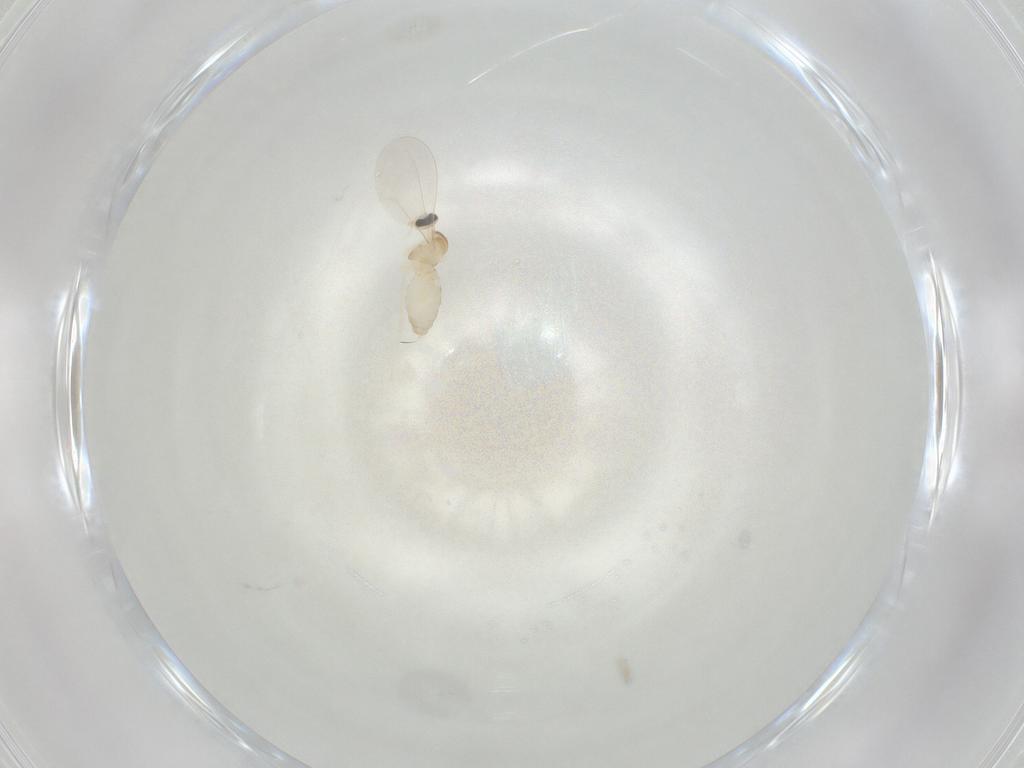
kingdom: Animalia
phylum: Arthropoda
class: Insecta
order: Diptera
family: Cecidomyiidae
